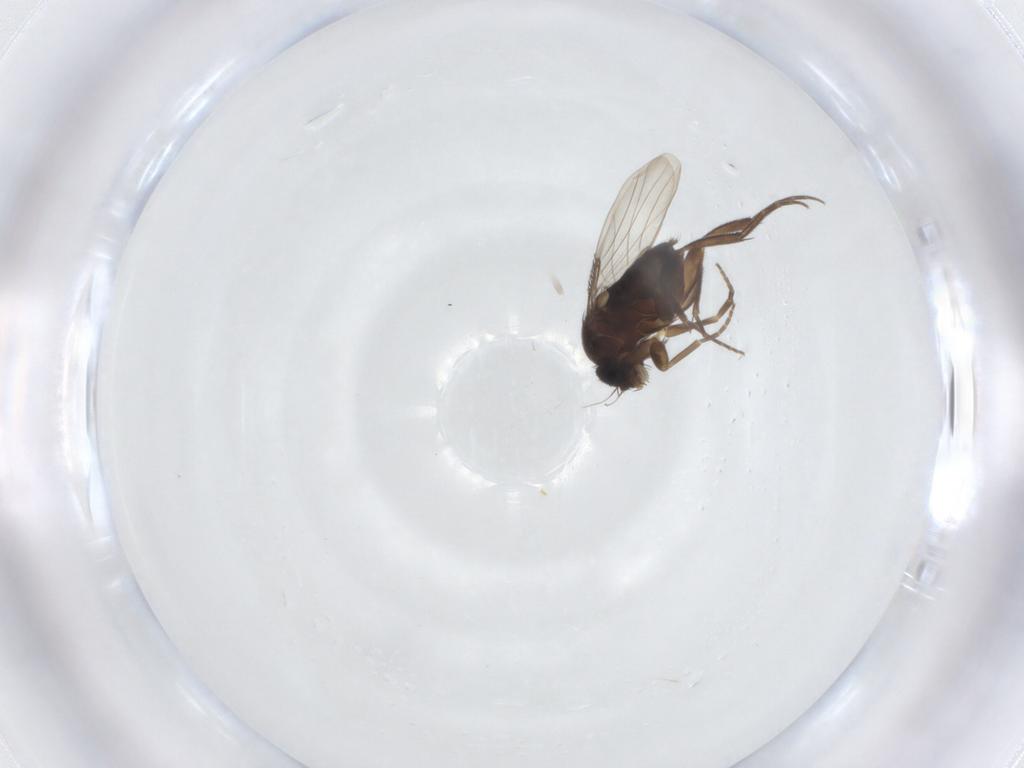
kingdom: Animalia
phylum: Arthropoda
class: Insecta
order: Diptera
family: Phoridae
